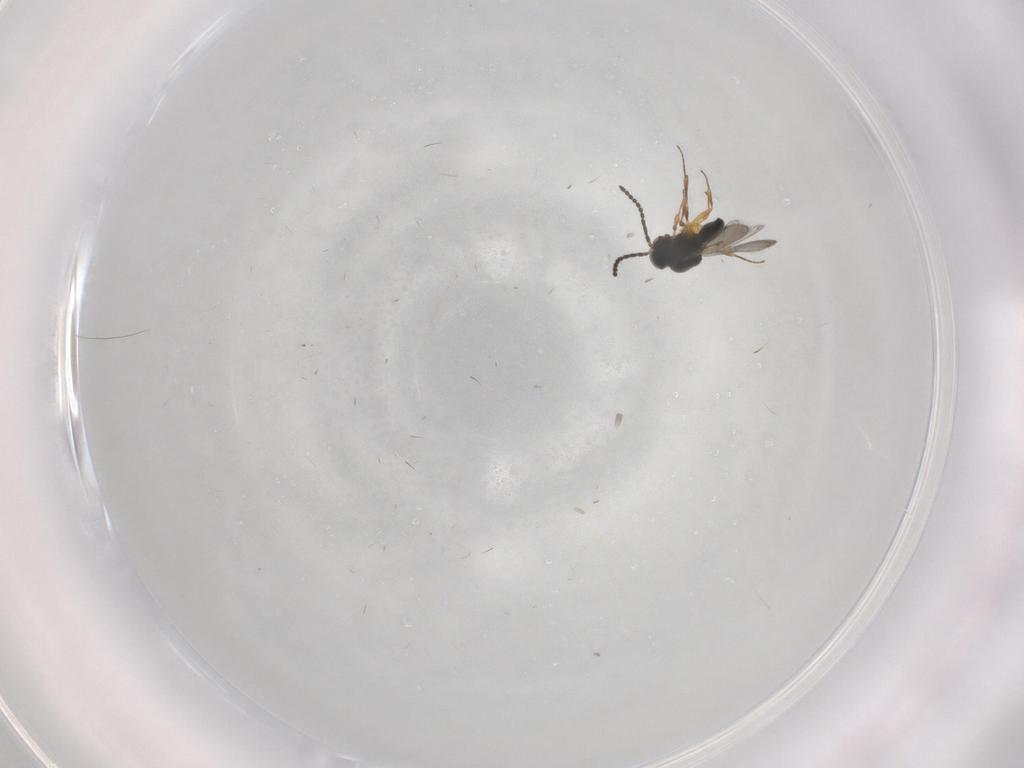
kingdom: Animalia
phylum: Arthropoda
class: Insecta
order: Hymenoptera
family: Scelionidae
